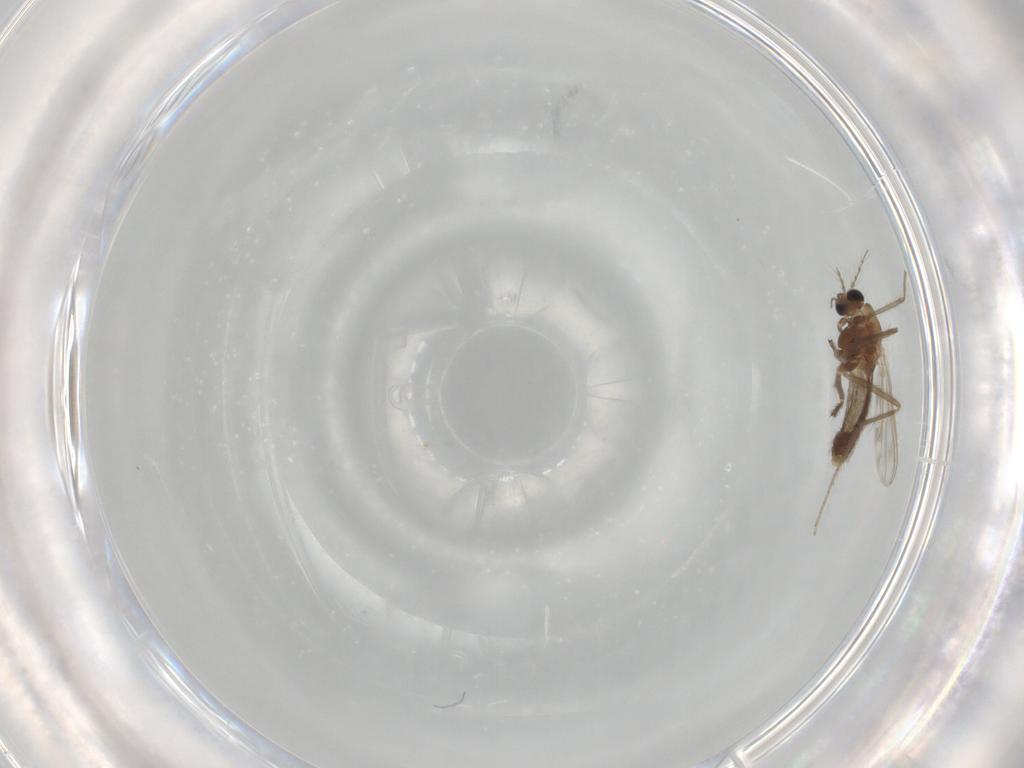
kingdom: Animalia
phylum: Arthropoda
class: Insecta
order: Diptera
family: Chironomidae
